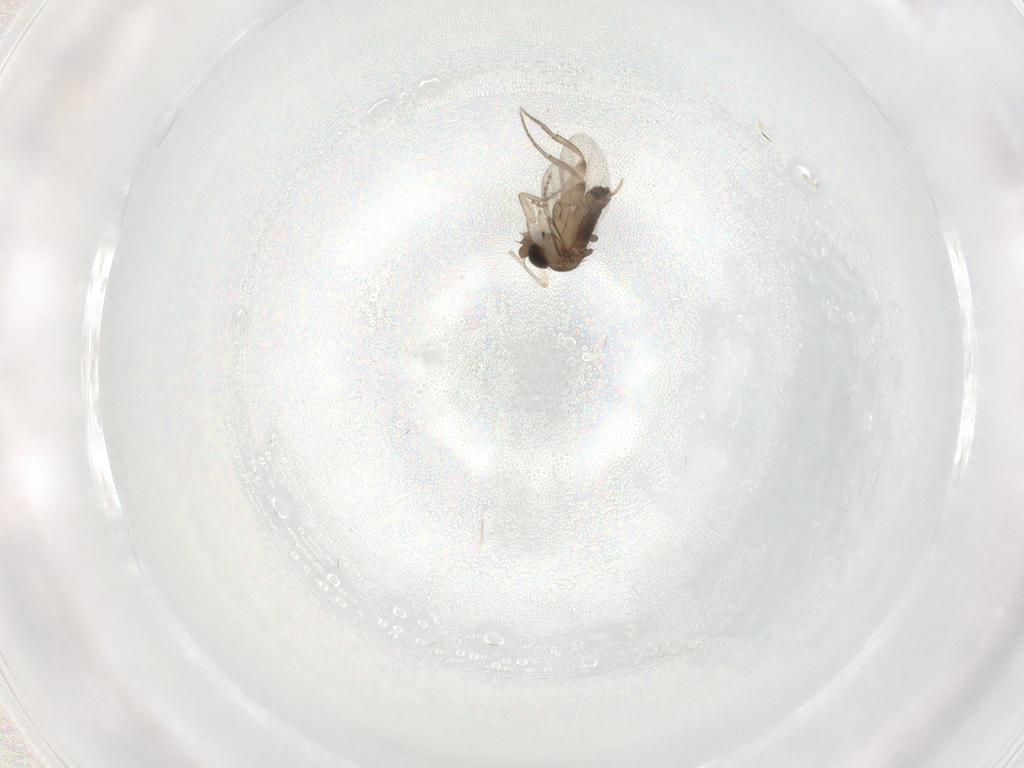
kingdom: Animalia
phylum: Arthropoda
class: Insecta
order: Diptera
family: Phoridae
